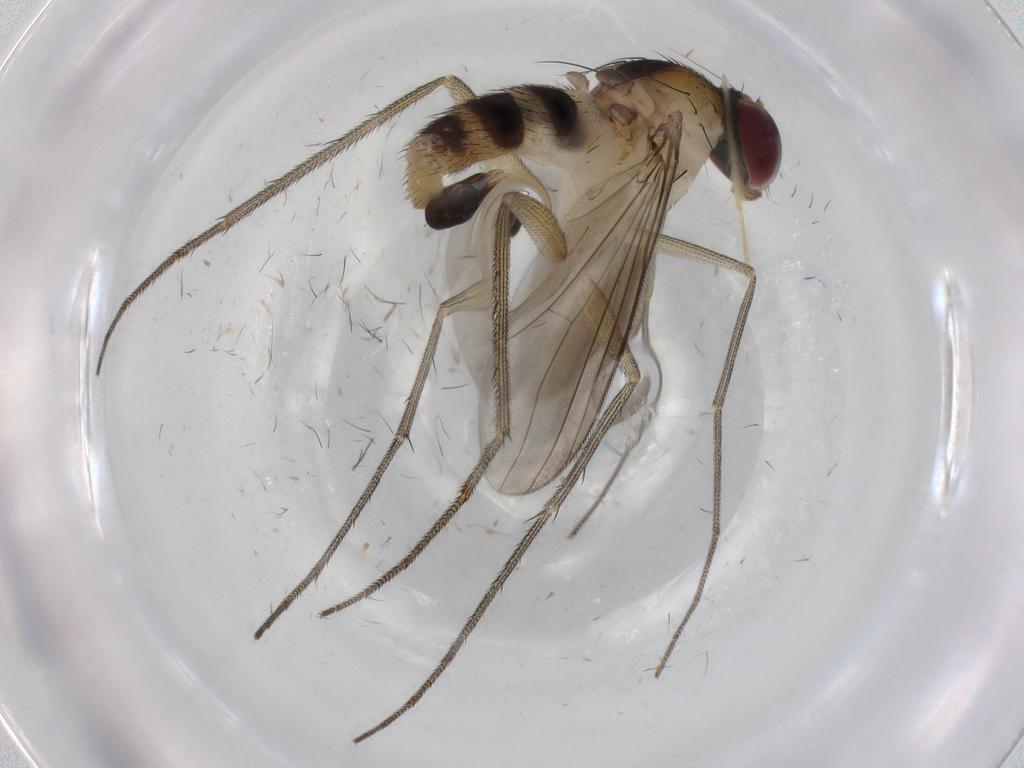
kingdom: Animalia
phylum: Arthropoda
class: Insecta
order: Diptera
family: Dolichopodidae
